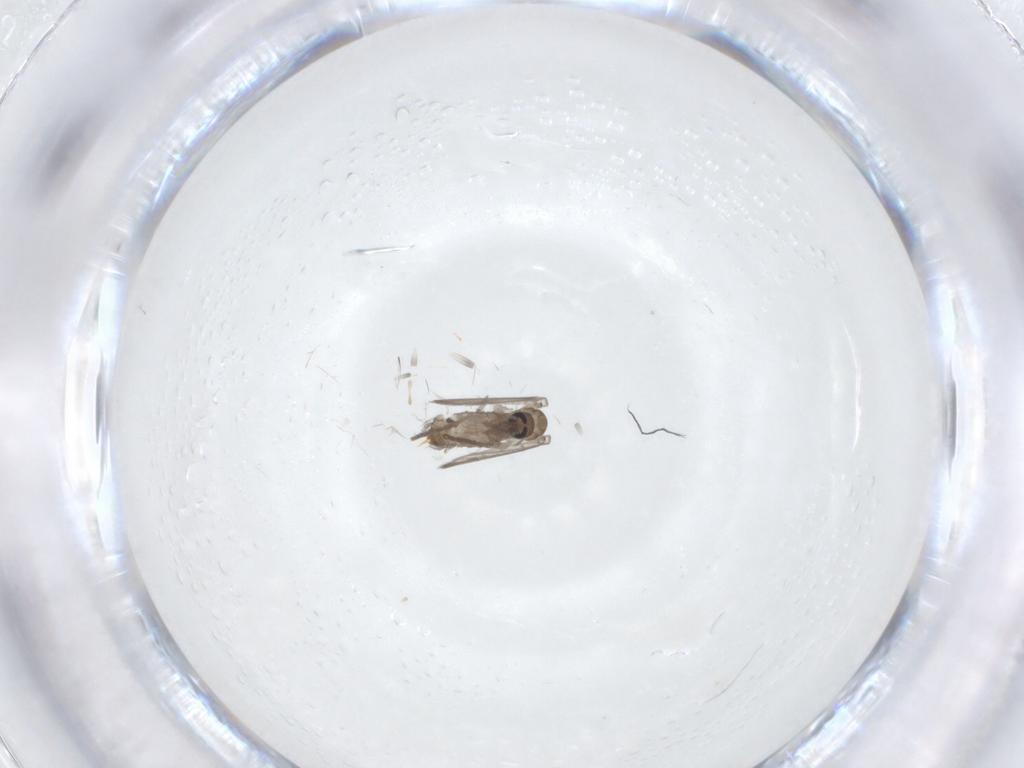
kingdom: Animalia
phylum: Arthropoda
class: Insecta
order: Diptera
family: Psychodidae
